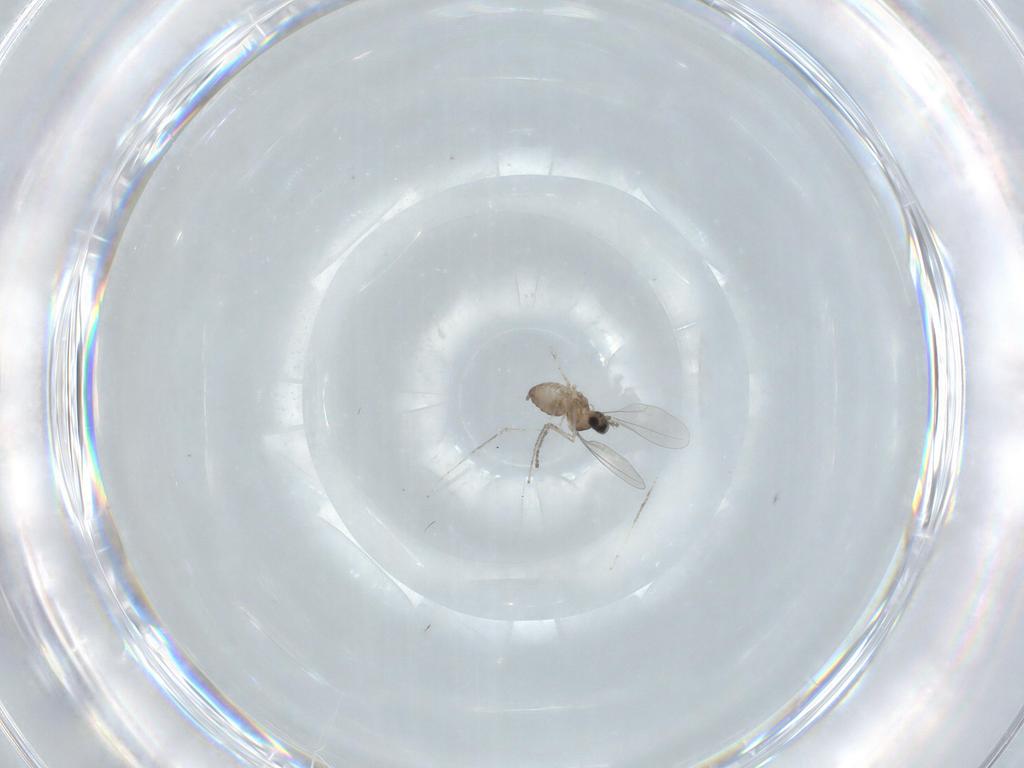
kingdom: Animalia
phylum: Arthropoda
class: Insecta
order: Diptera
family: Cecidomyiidae
